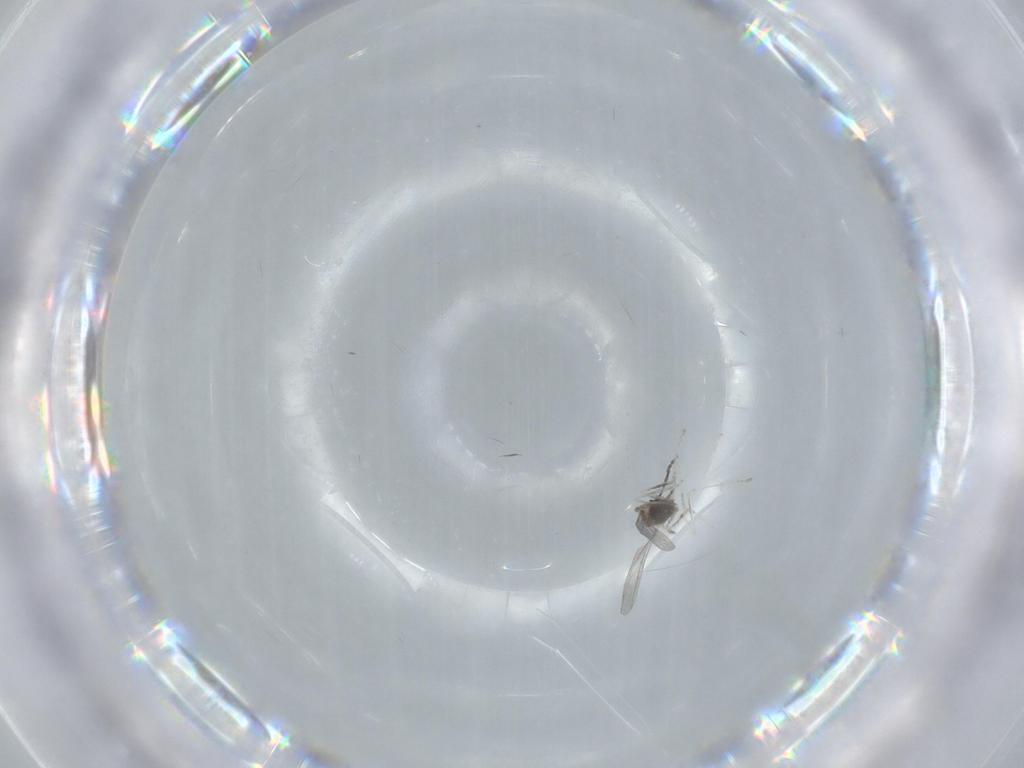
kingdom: Animalia
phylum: Arthropoda
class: Insecta
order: Diptera
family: Sciaridae
